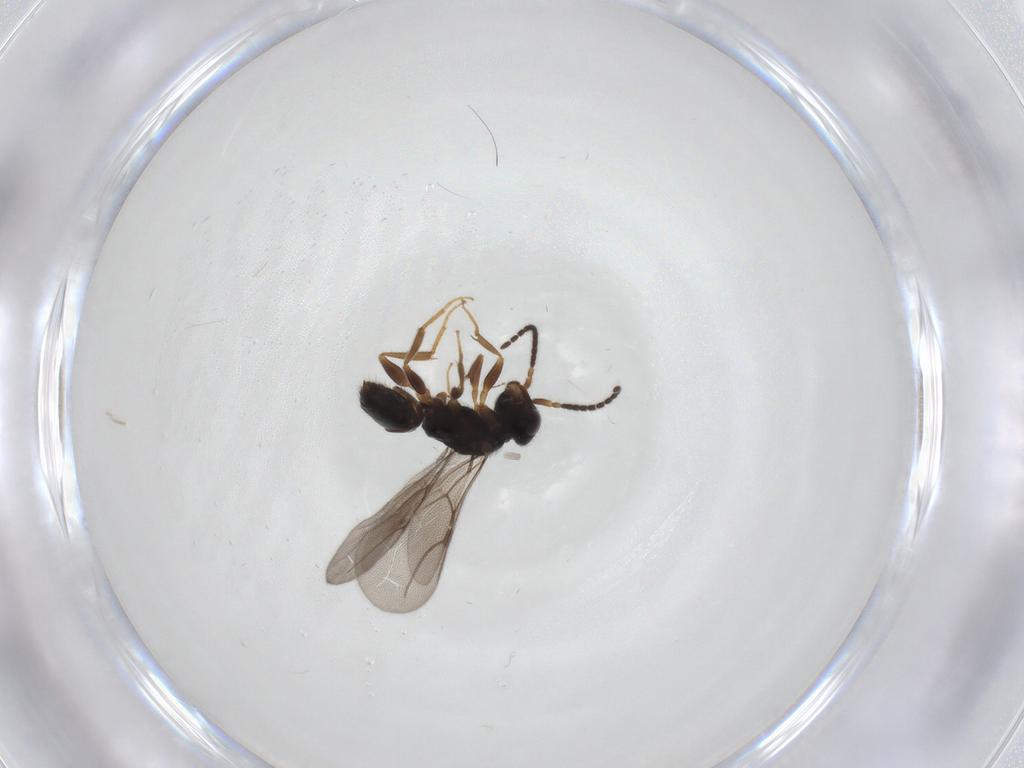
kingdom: Animalia
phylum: Arthropoda
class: Insecta
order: Hymenoptera
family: Bethylidae
